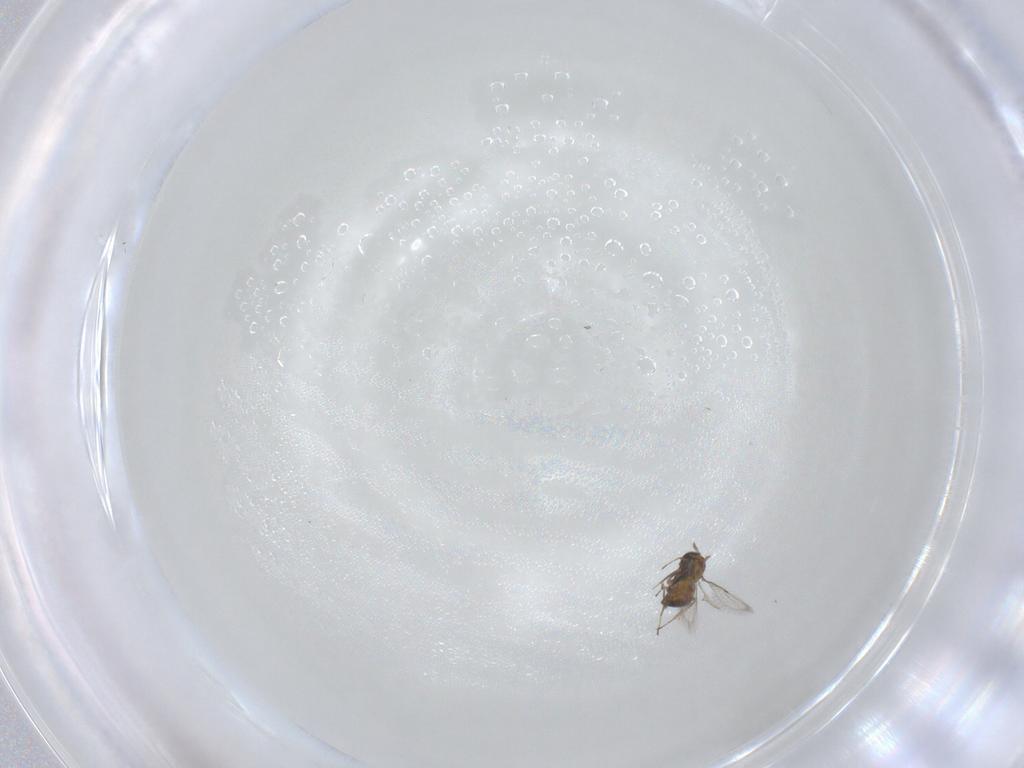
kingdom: Animalia
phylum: Arthropoda
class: Insecta
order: Hymenoptera
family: Trichogrammatidae
